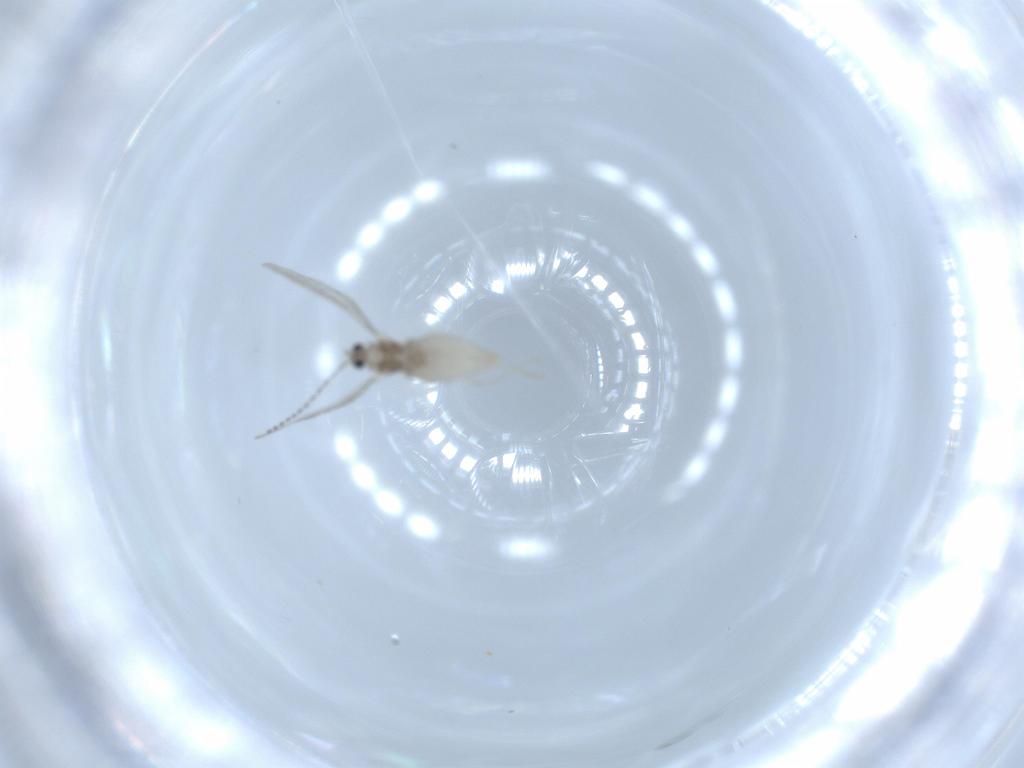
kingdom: Animalia
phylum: Arthropoda
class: Insecta
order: Diptera
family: Cecidomyiidae
